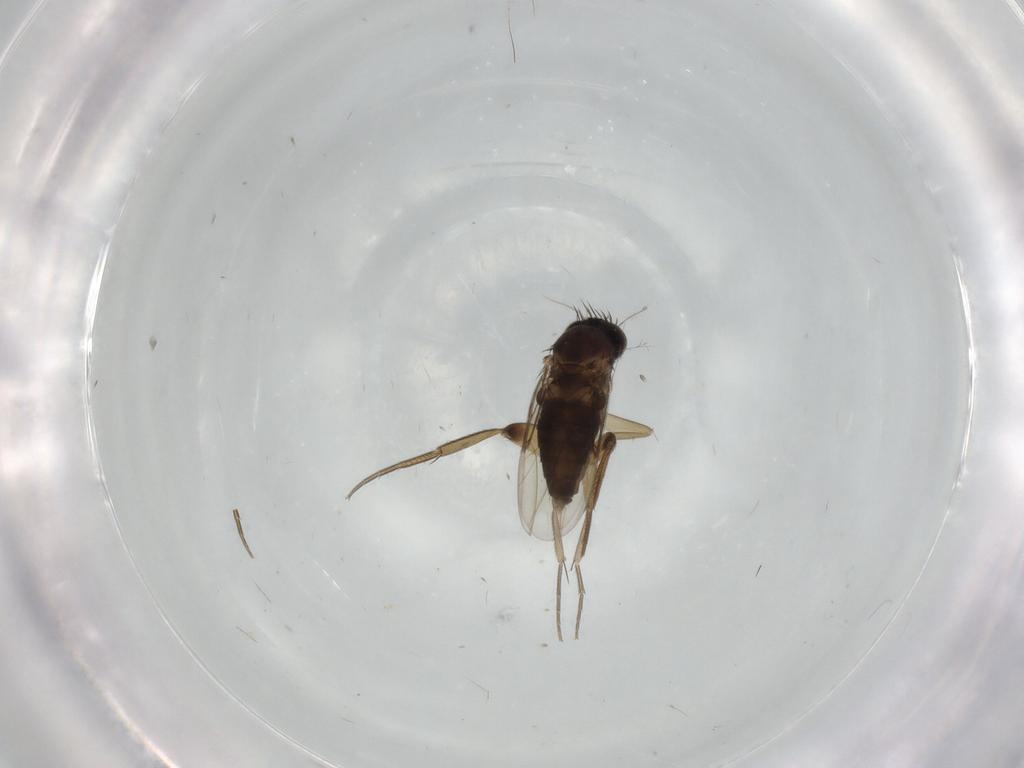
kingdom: Animalia
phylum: Arthropoda
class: Insecta
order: Diptera
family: Phoridae
